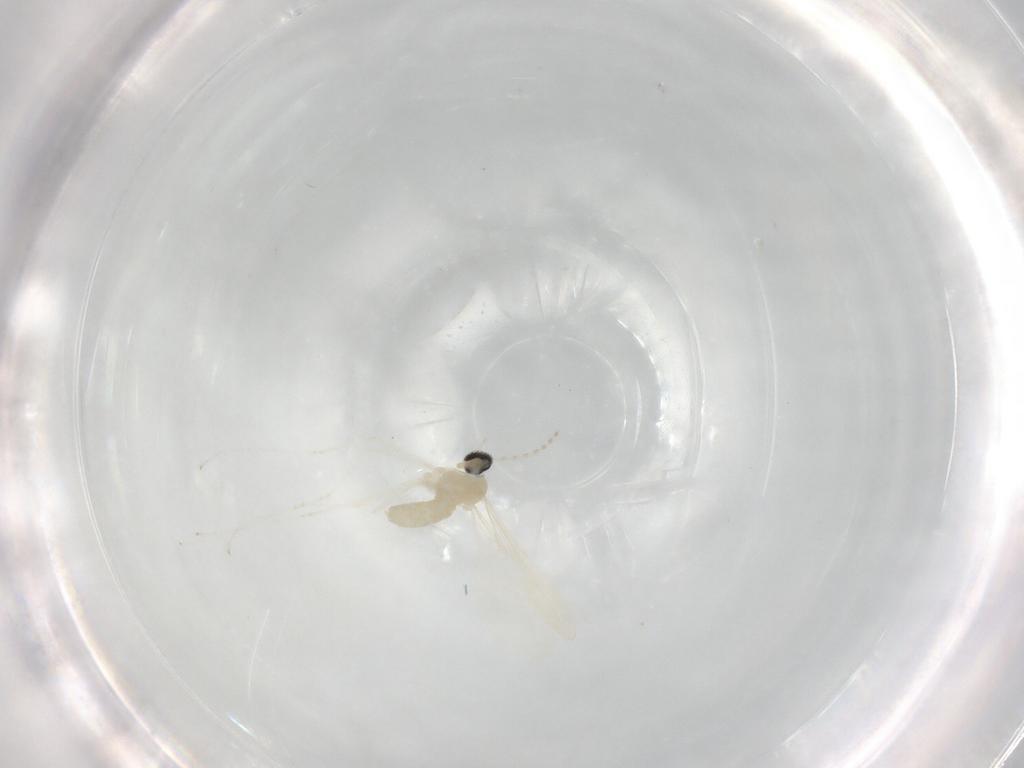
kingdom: Animalia
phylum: Arthropoda
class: Insecta
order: Diptera
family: Cecidomyiidae
